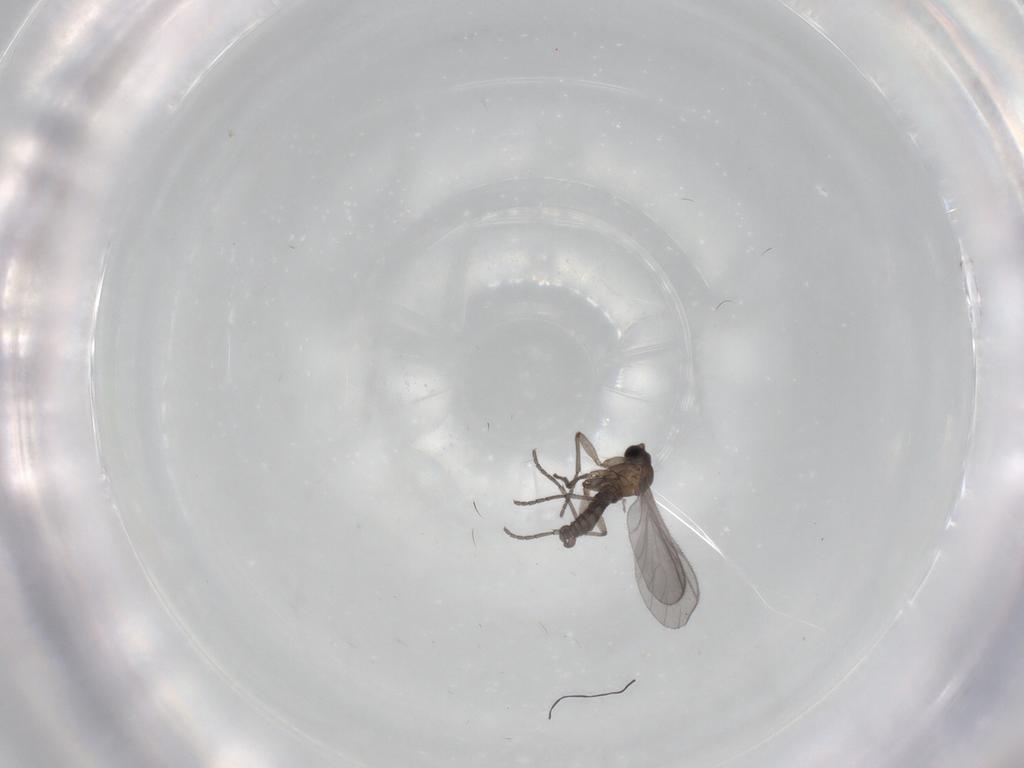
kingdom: Animalia
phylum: Arthropoda
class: Insecta
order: Diptera
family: Sciaridae
